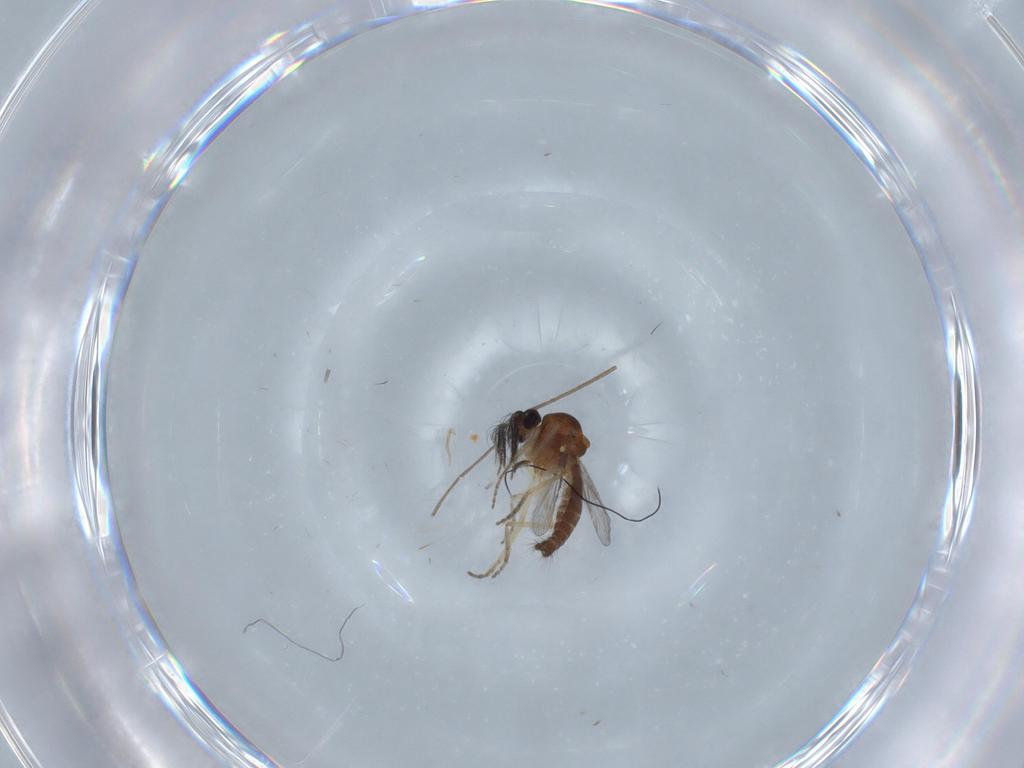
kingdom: Animalia
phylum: Arthropoda
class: Insecta
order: Diptera
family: Ceratopogonidae
